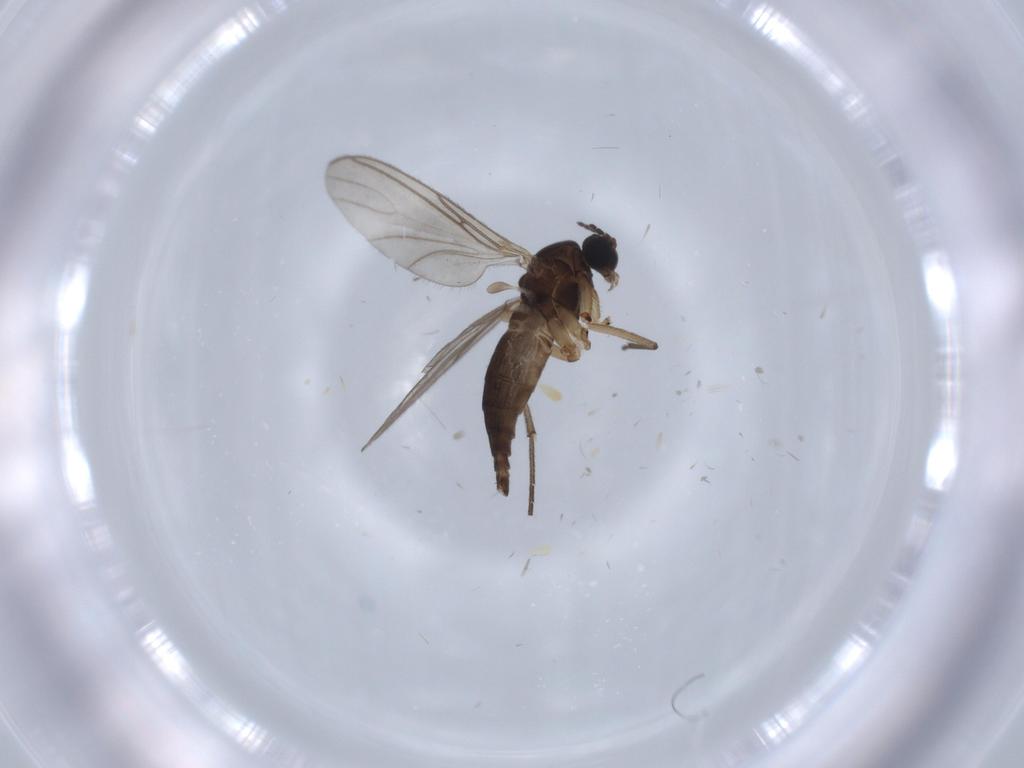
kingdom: Animalia
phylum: Arthropoda
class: Insecta
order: Diptera
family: Sciaridae
